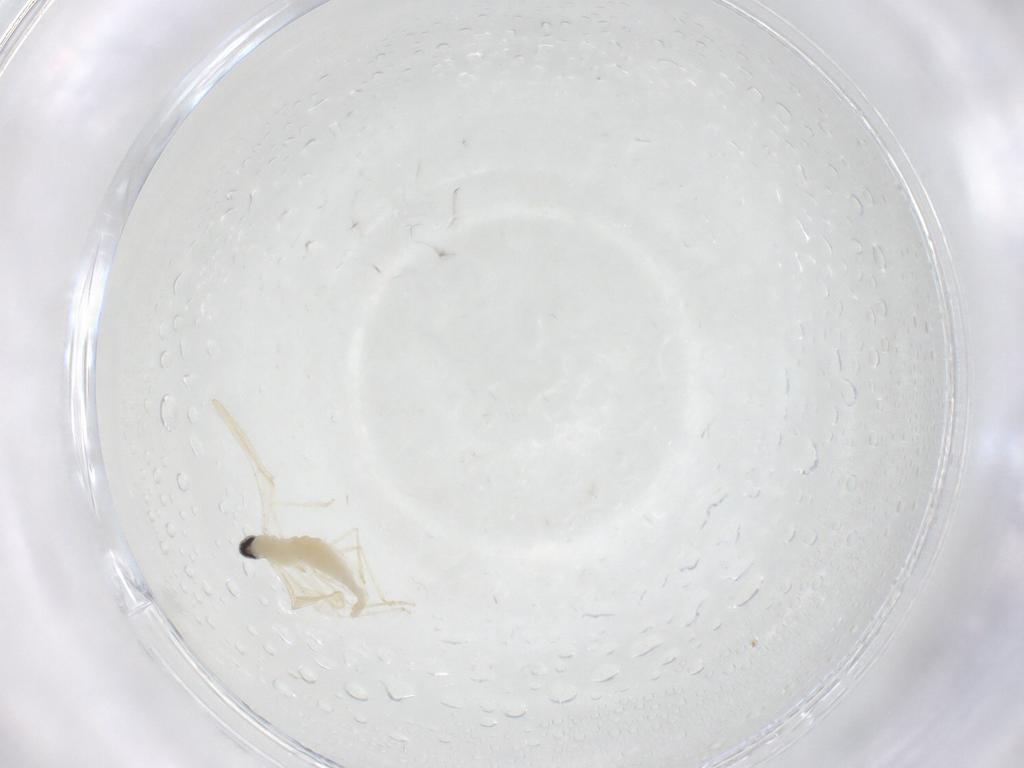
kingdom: Animalia
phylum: Arthropoda
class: Insecta
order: Diptera
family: Cecidomyiidae
